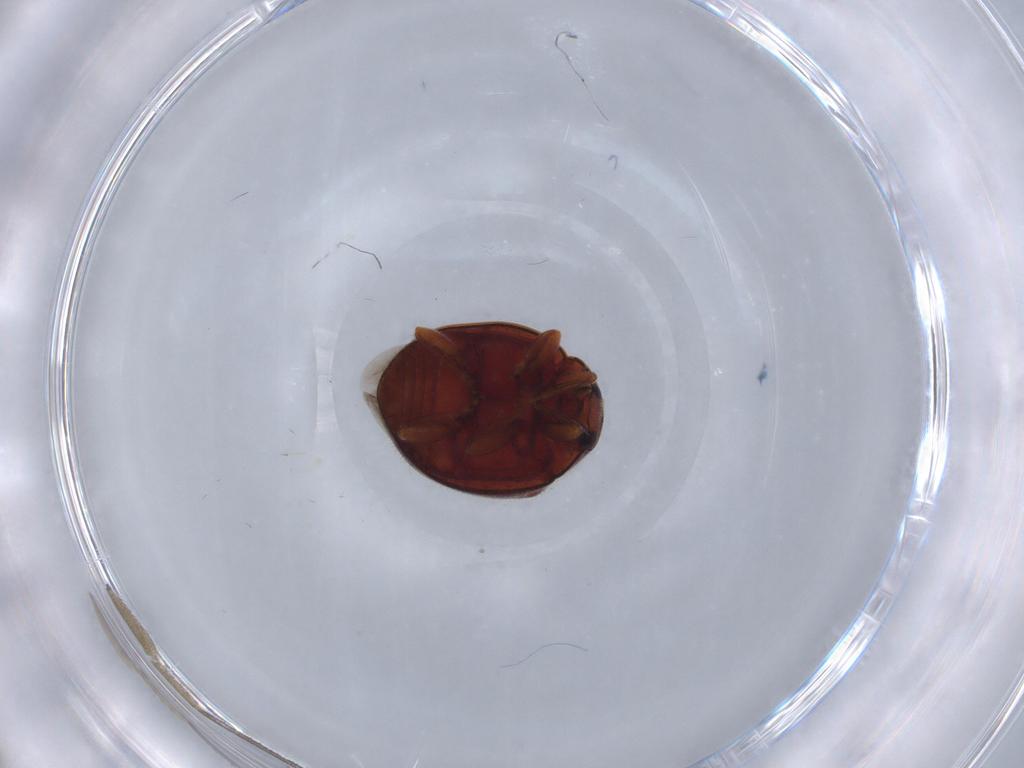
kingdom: Animalia
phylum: Arthropoda
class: Insecta
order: Coleoptera
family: Coccinellidae
